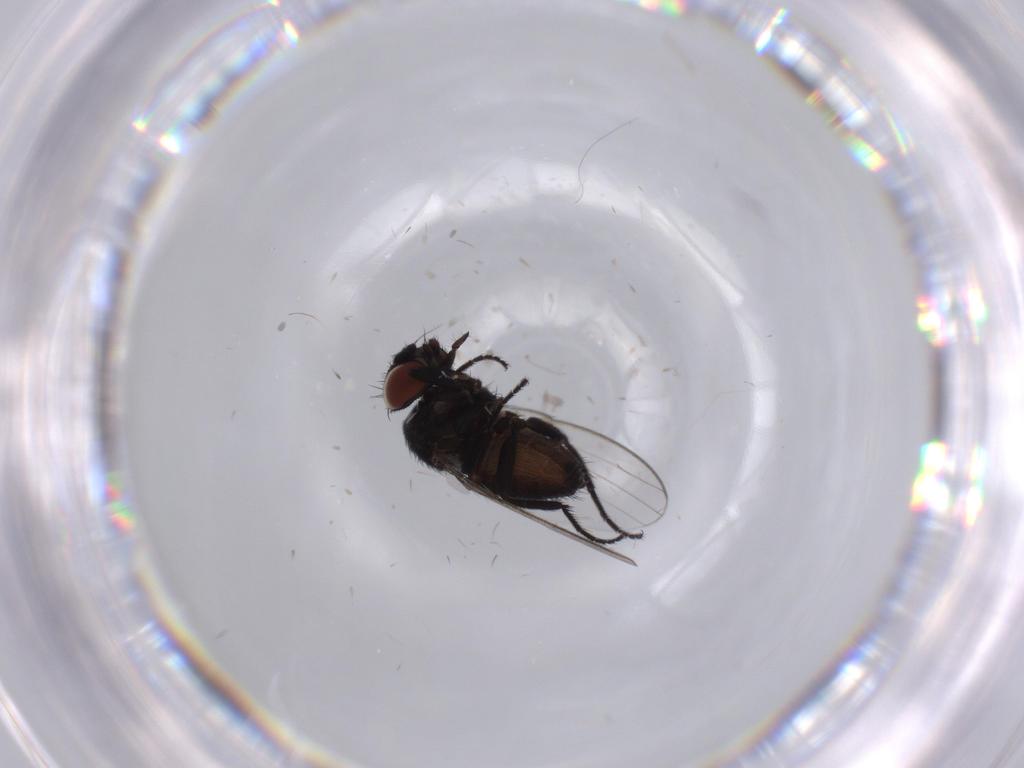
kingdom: Animalia
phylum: Arthropoda
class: Insecta
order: Diptera
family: Milichiidae
